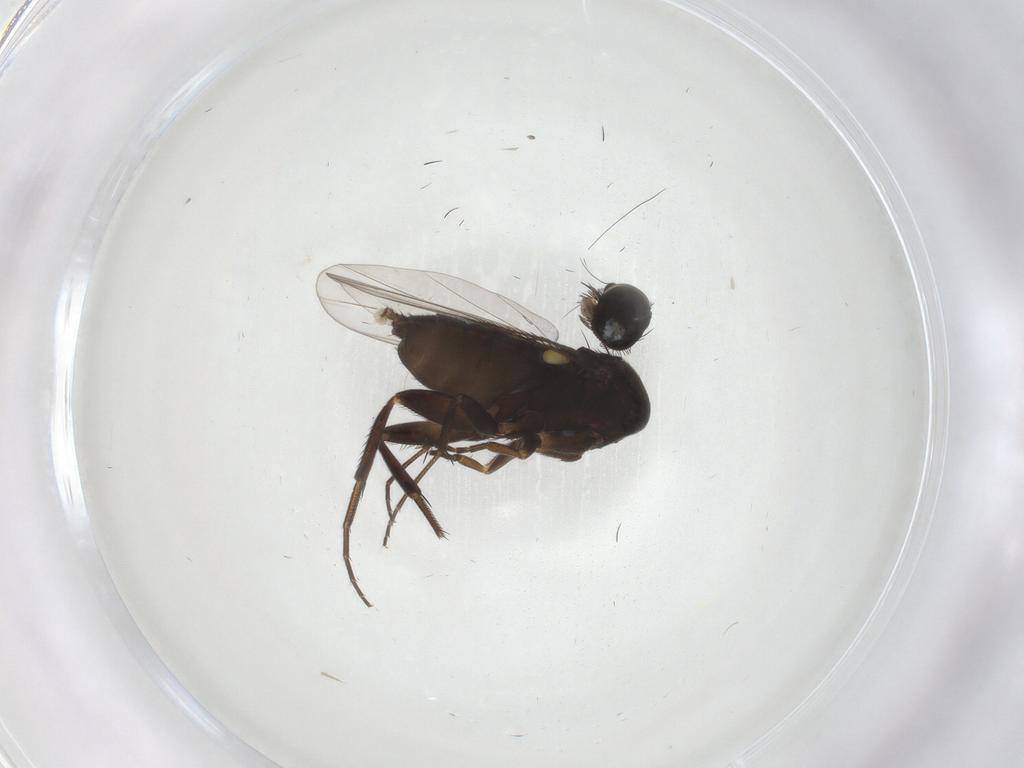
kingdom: Animalia
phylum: Arthropoda
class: Insecta
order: Diptera
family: Phoridae
